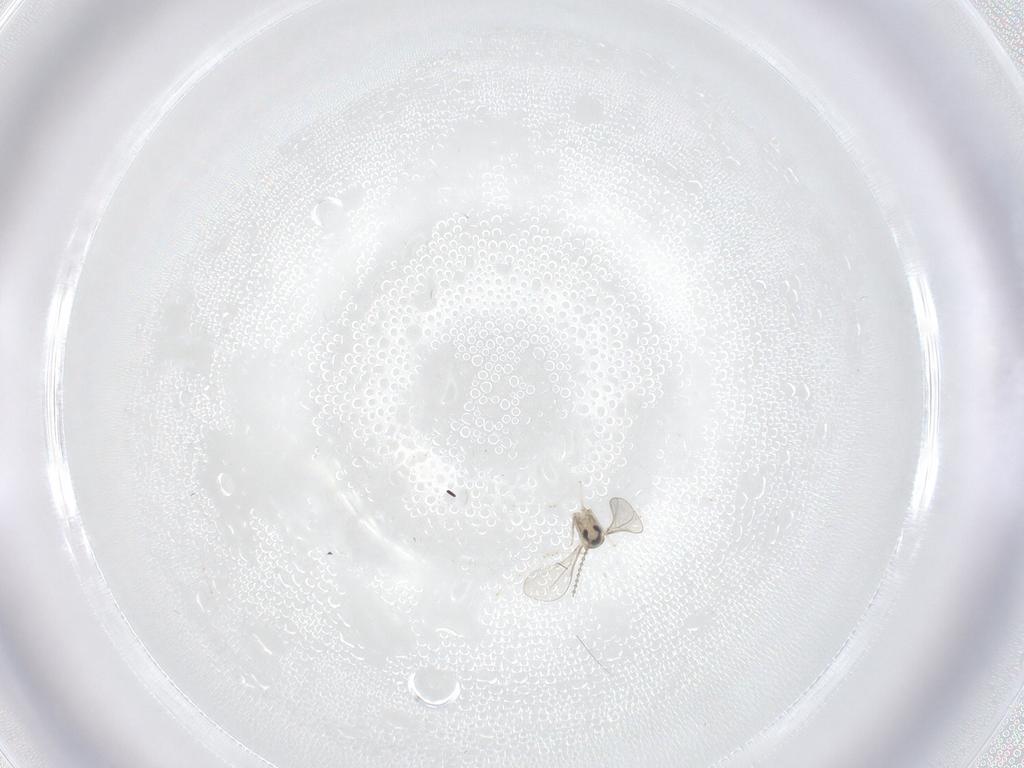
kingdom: Animalia
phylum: Arthropoda
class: Insecta
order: Diptera
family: Cecidomyiidae
